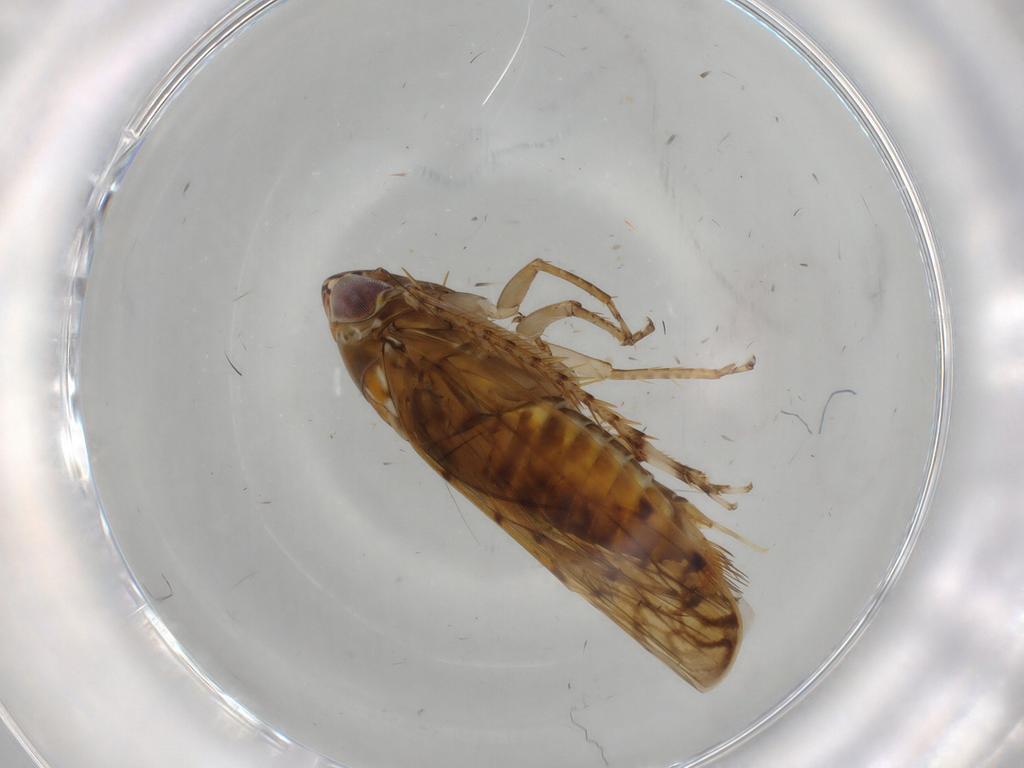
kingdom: Animalia
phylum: Arthropoda
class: Insecta
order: Hemiptera
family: Cicadellidae
